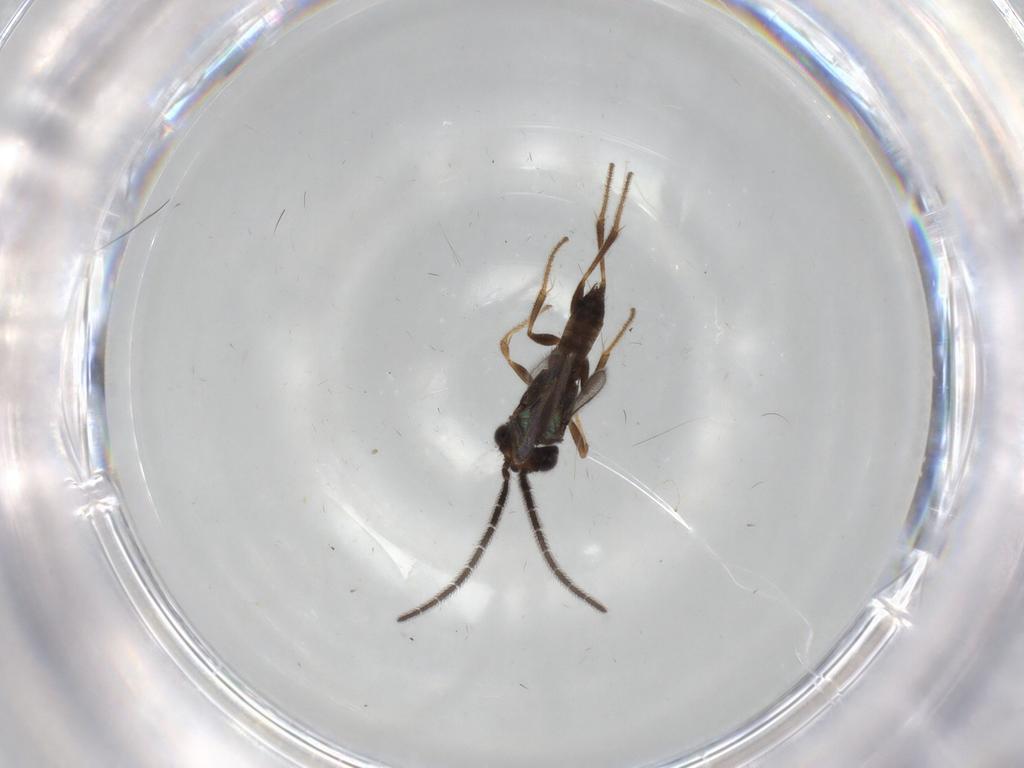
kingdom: Animalia
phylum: Arthropoda
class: Insecta
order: Hymenoptera
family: Dryinidae
